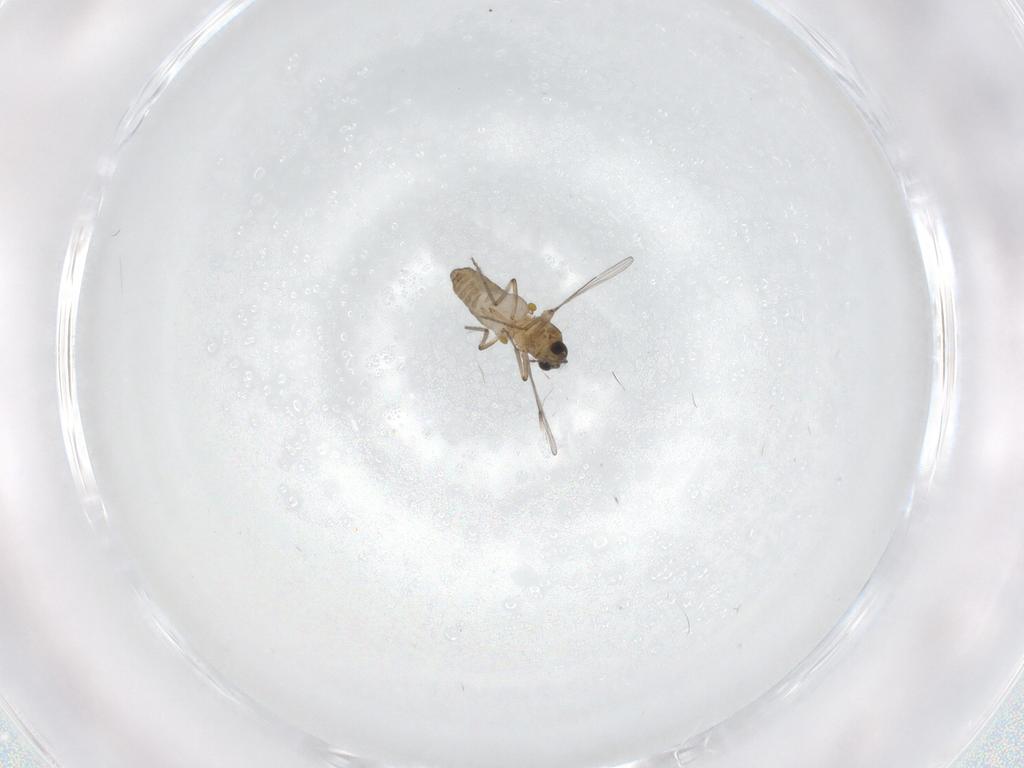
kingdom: Animalia
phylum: Arthropoda
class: Insecta
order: Diptera
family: Ceratopogonidae
